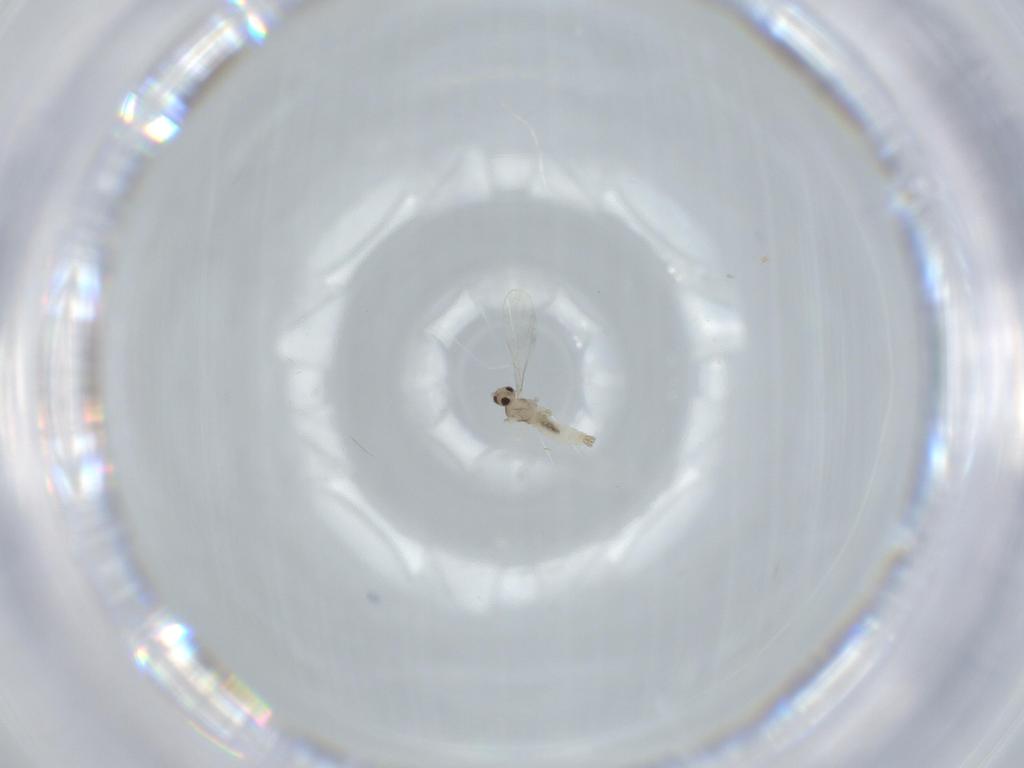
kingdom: Animalia
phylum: Arthropoda
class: Insecta
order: Diptera
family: Cecidomyiidae
